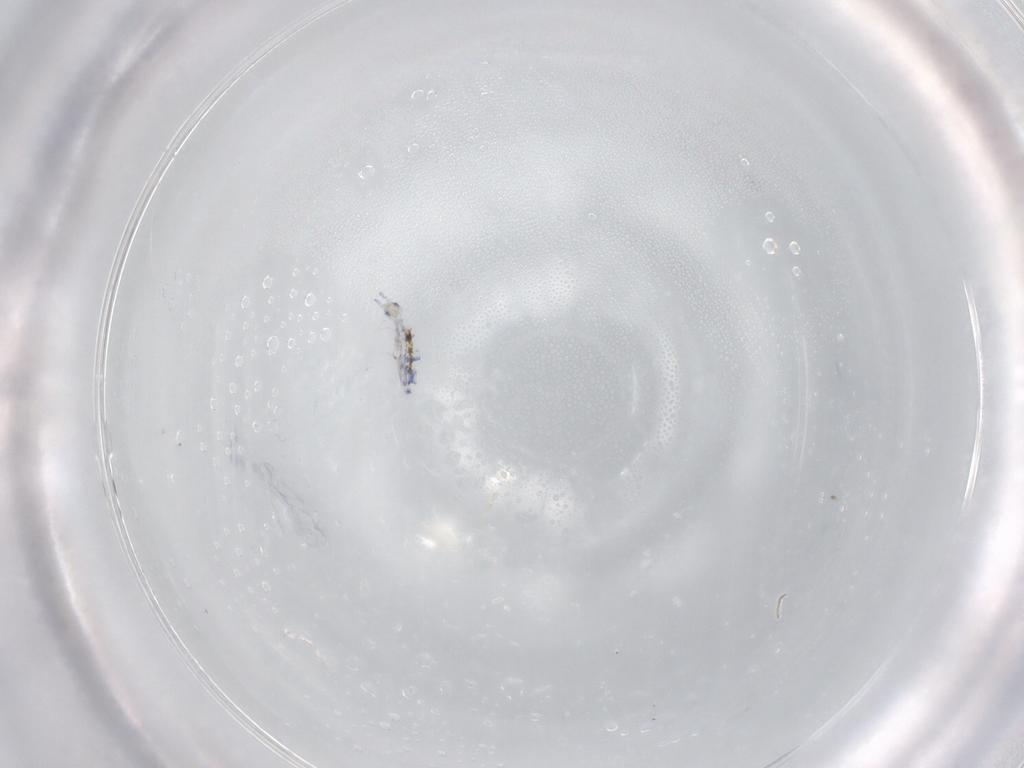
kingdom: Animalia
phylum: Arthropoda
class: Collembola
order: Entomobryomorpha
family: Entomobryidae
